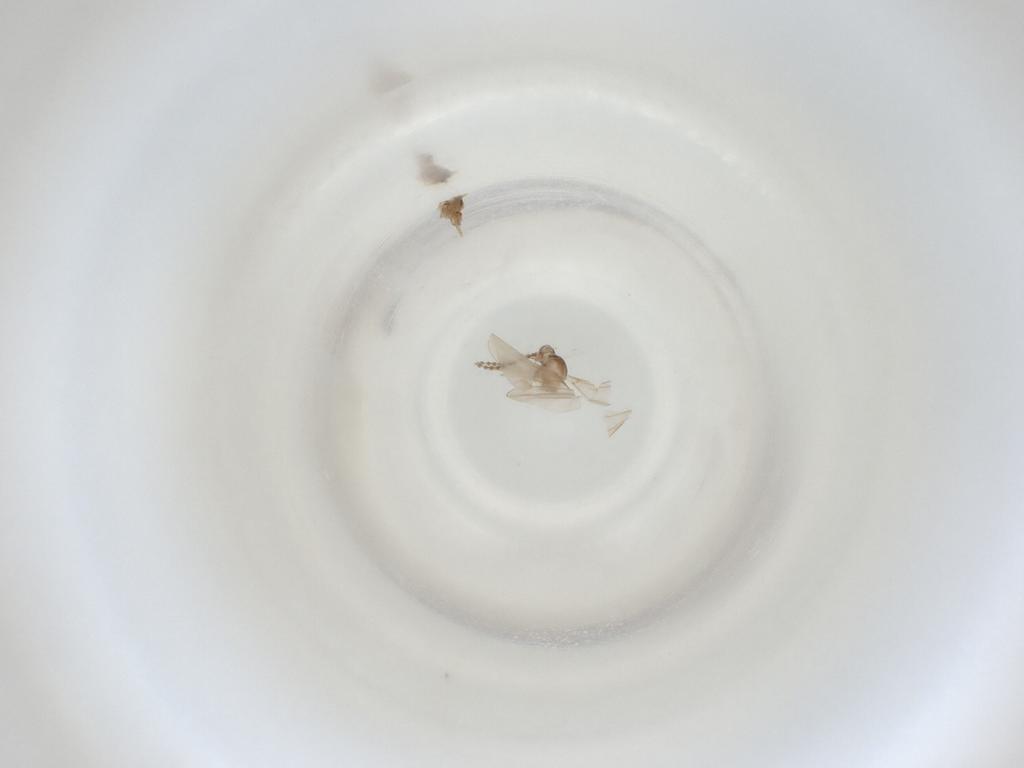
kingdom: Animalia
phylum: Arthropoda
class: Insecta
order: Diptera
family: Cecidomyiidae
